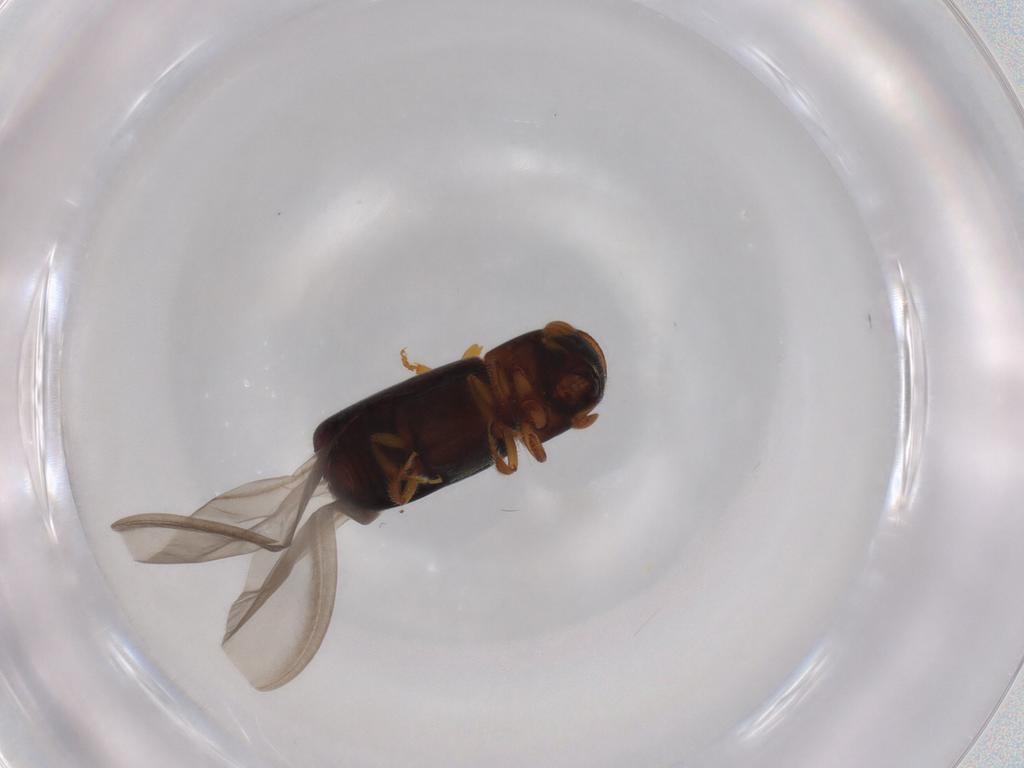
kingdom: Animalia
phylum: Arthropoda
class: Insecta
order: Coleoptera
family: Curculionidae
